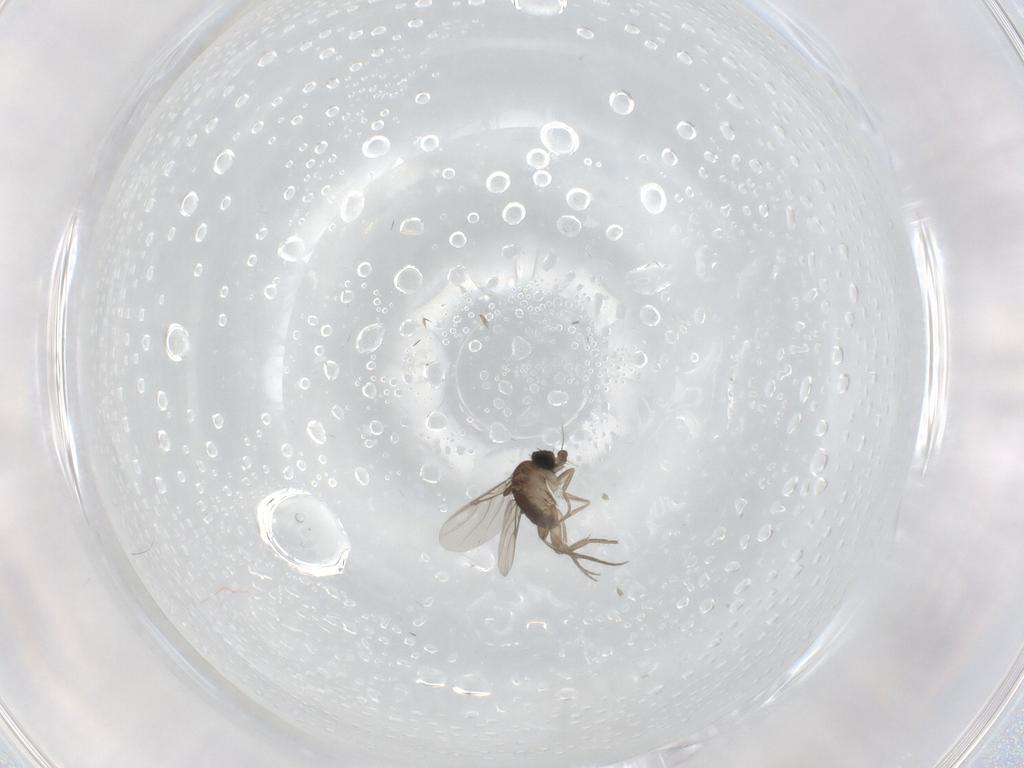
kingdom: Animalia
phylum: Arthropoda
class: Insecta
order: Diptera
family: Phoridae
